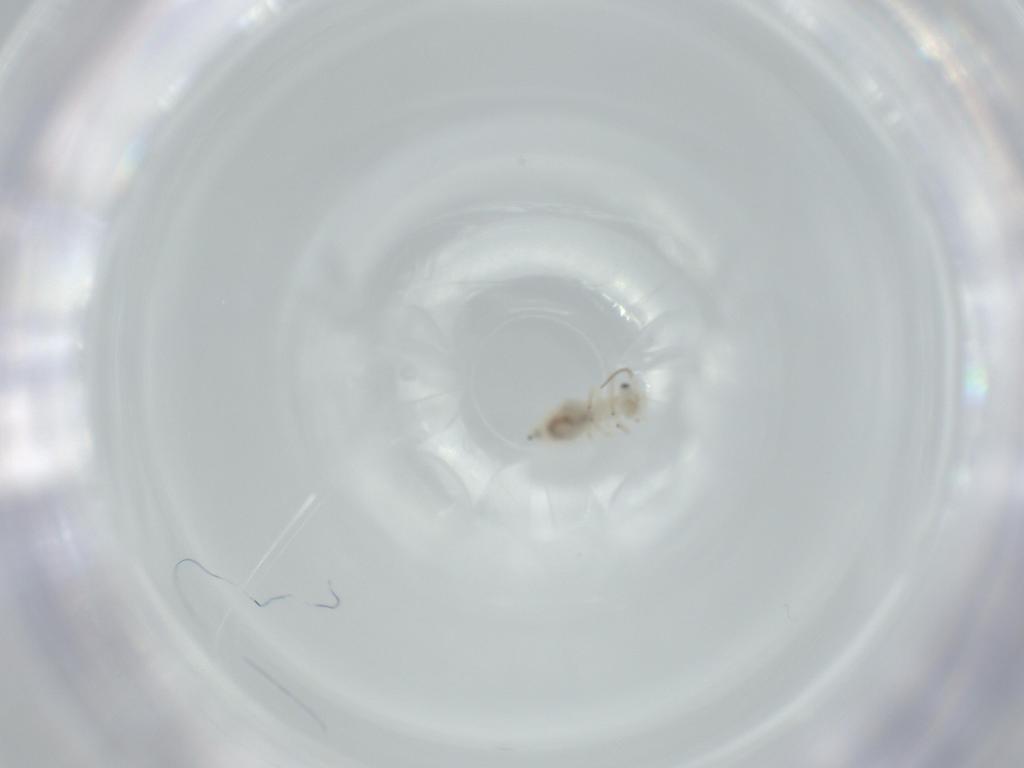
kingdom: Animalia
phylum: Arthropoda
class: Insecta
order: Psocodea
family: Caeciliusidae
